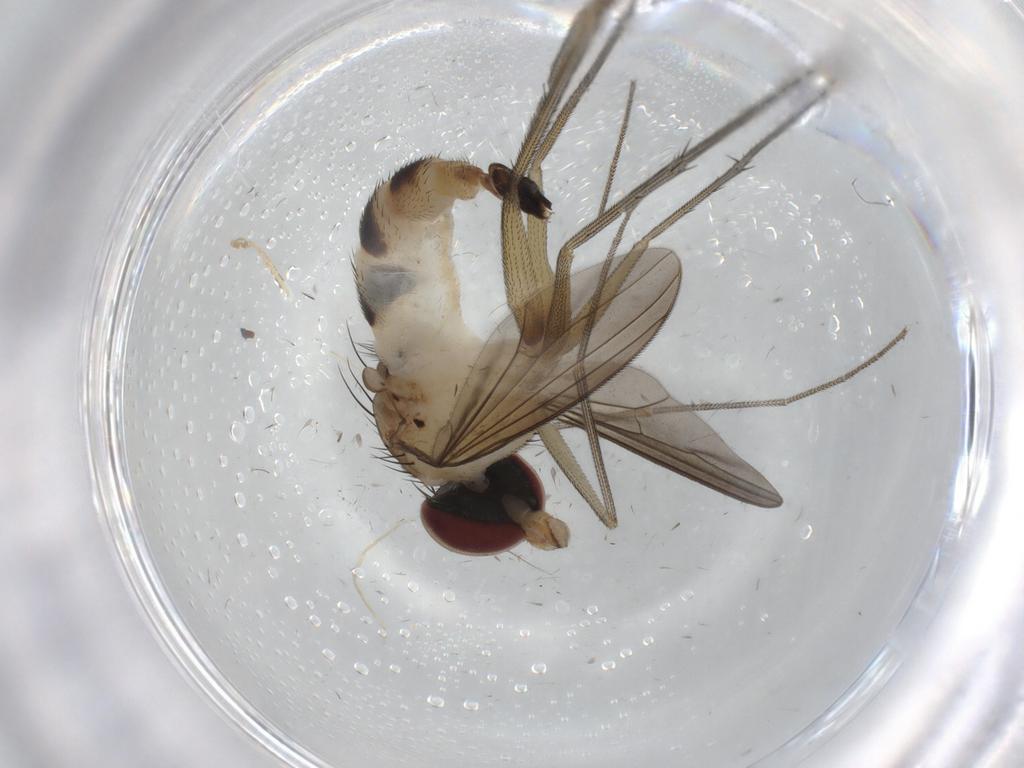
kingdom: Animalia
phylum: Arthropoda
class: Insecta
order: Diptera
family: Dolichopodidae
